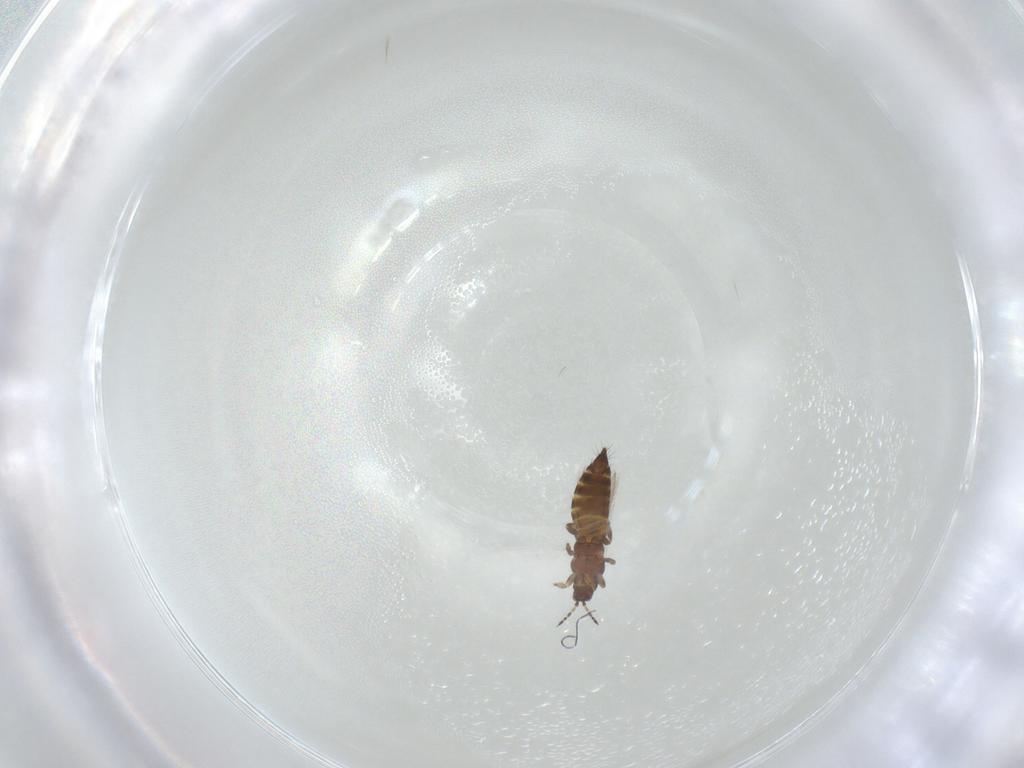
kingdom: Animalia
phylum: Arthropoda
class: Insecta
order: Thysanoptera
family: Thripidae
